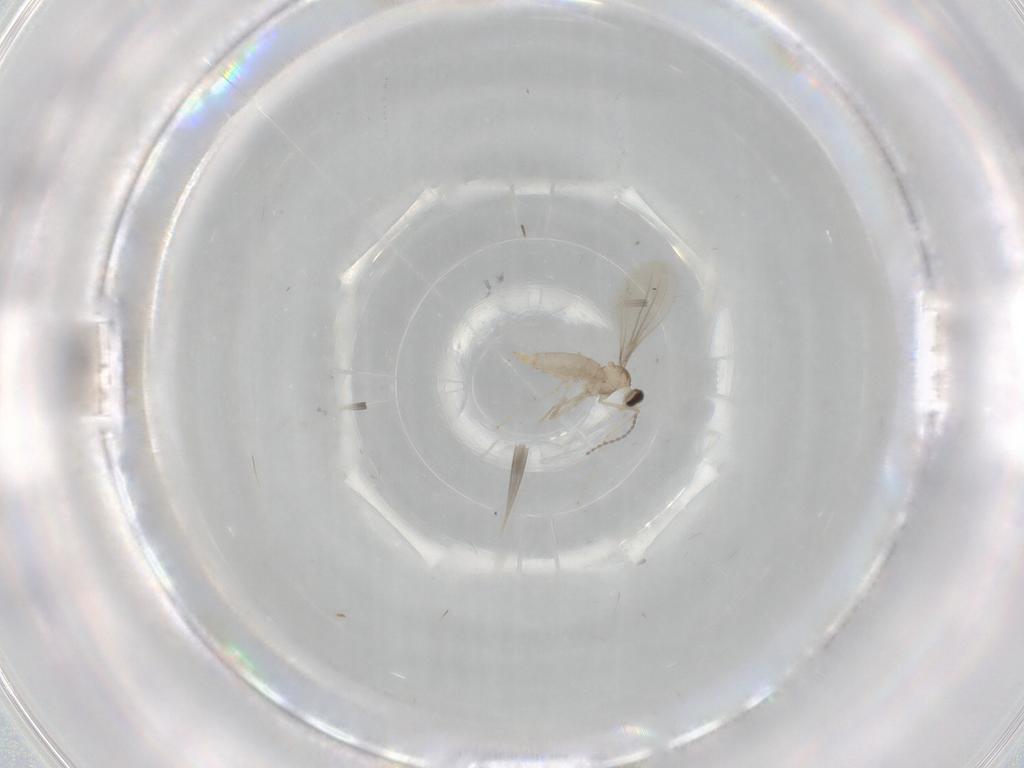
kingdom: Animalia
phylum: Arthropoda
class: Insecta
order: Diptera
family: Cecidomyiidae
